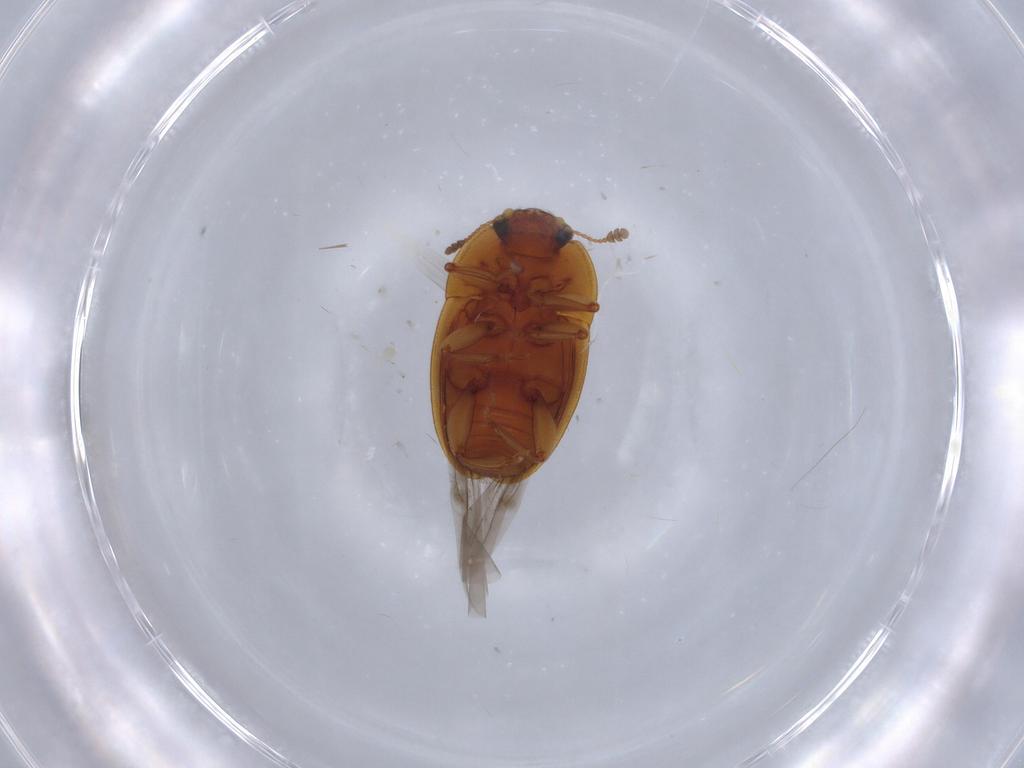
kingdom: Animalia
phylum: Arthropoda
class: Insecta
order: Coleoptera
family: Nitidulidae
